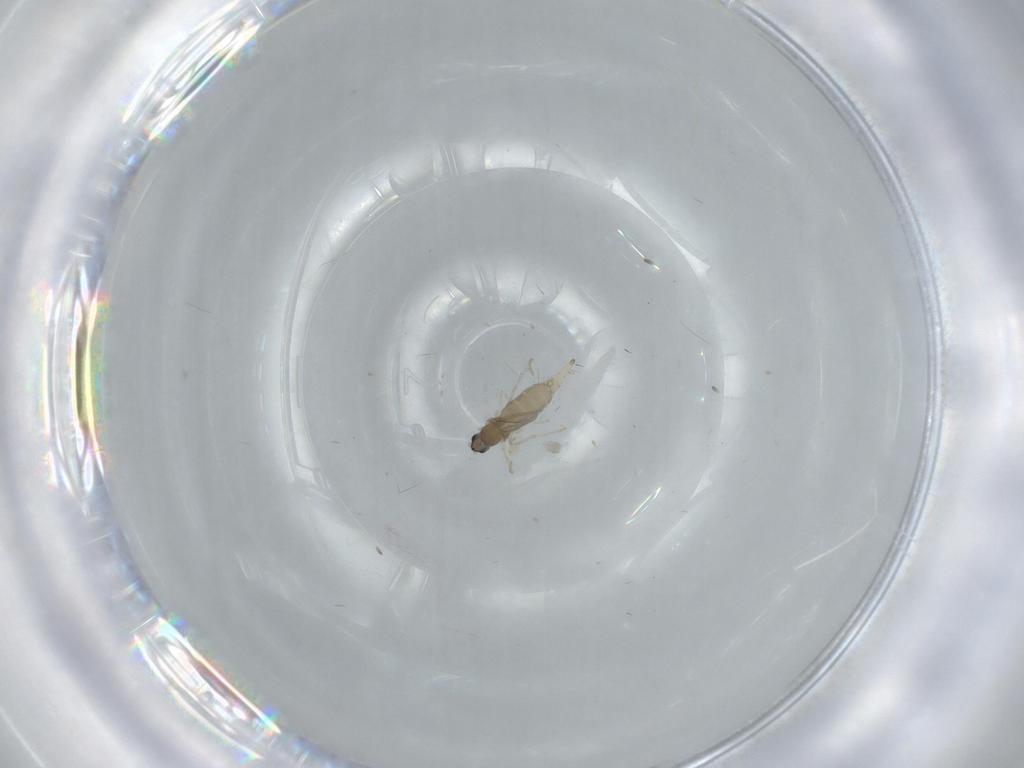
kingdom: Animalia
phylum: Arthropoda
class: Insecta
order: Diptera
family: Cecidomyiidae
